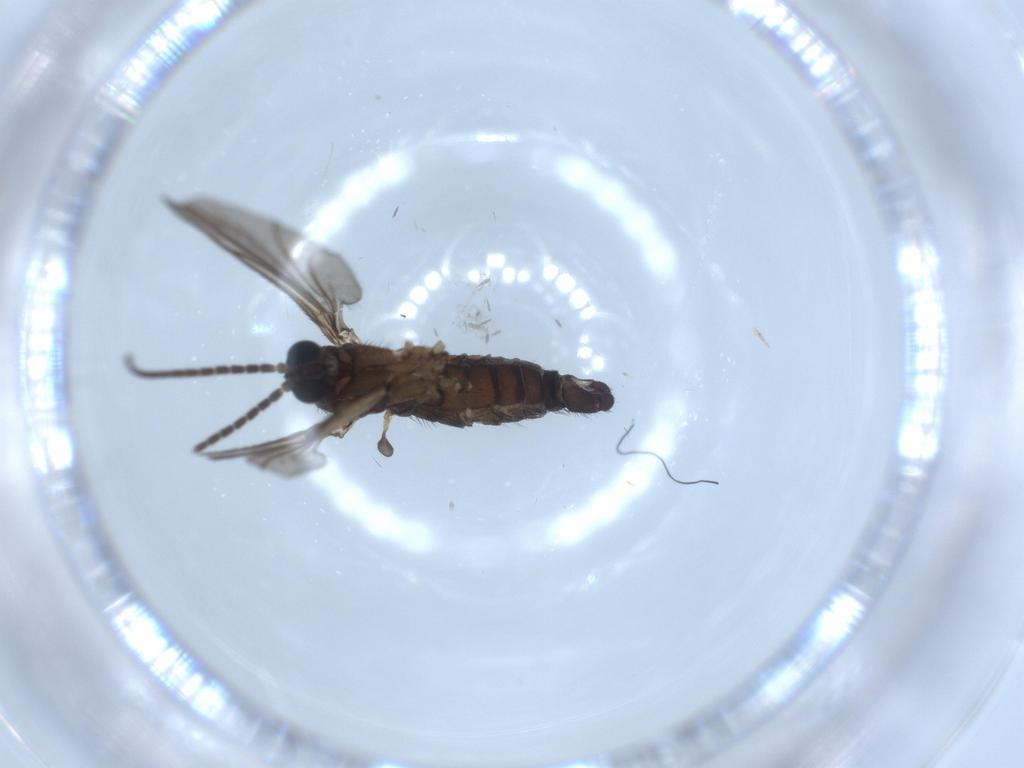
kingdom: Animalia
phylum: Arthropoda
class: Insecta
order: Diptera
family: Sciaridae
